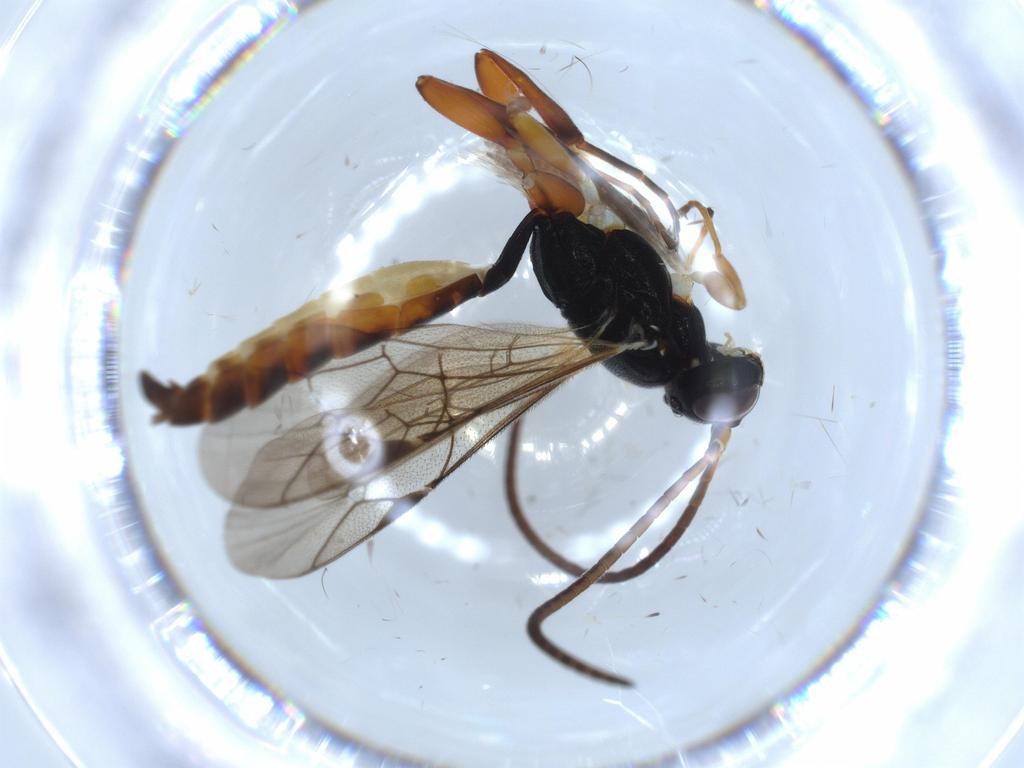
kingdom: Animalia
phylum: Arthropoda
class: Insecta
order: Hymenoptera
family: Ichneumonidae
